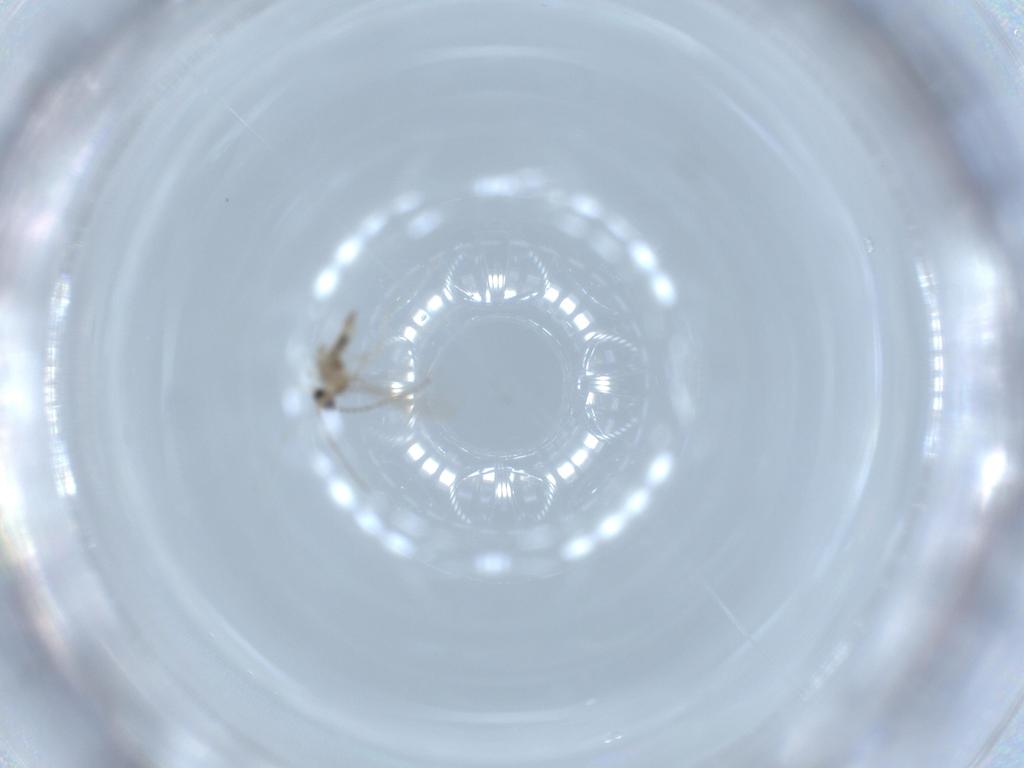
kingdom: Animalia
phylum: Arthropoda
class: Insecta
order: Diptera
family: Cecidomyiidae
